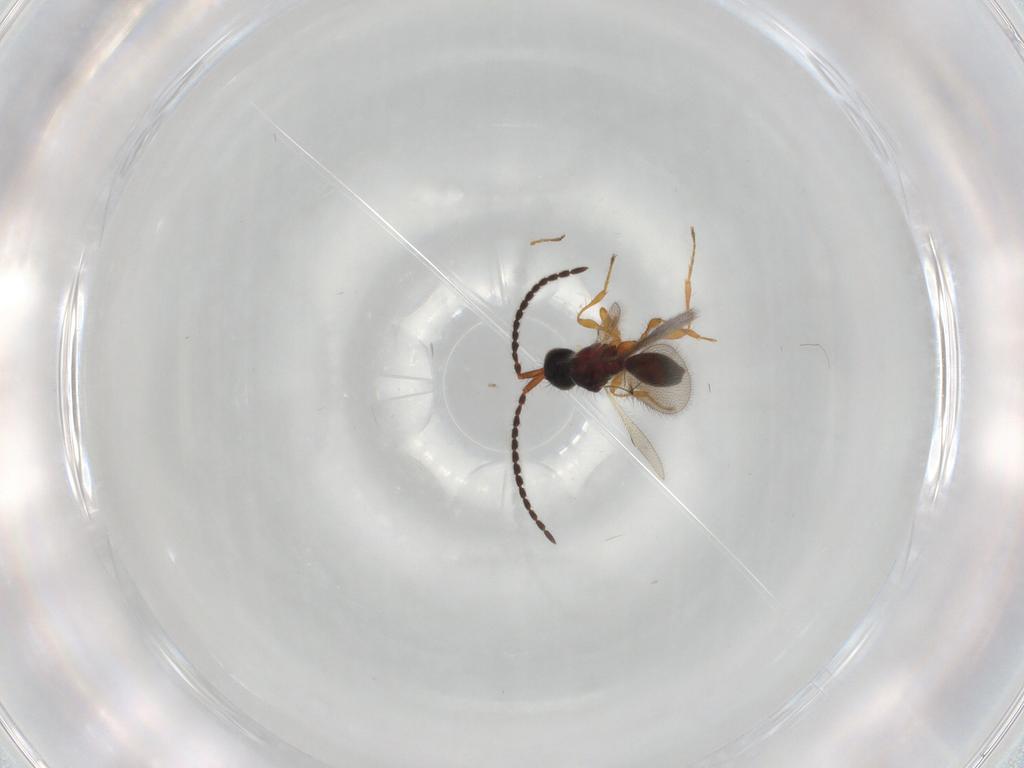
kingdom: Animalia
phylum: Arthropoda
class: Insecta
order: Hymenoptera
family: Diapriidae
